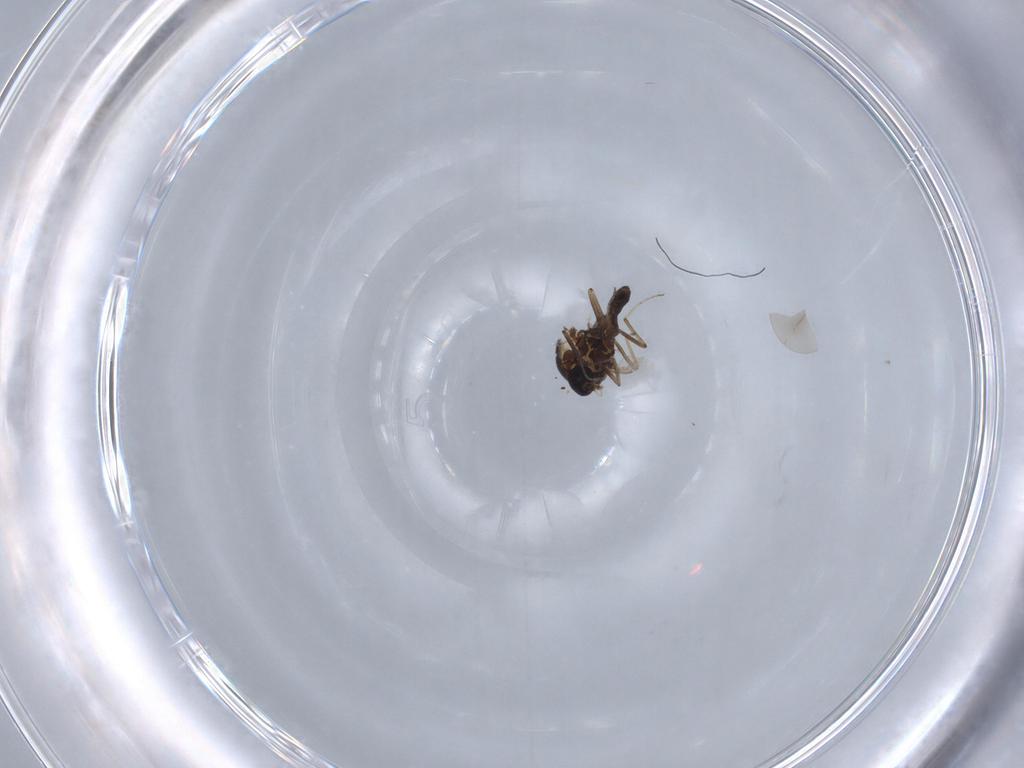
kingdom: Animalia
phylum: Arthropoda
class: Insecta
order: Diptera
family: Ceratopogonidae
